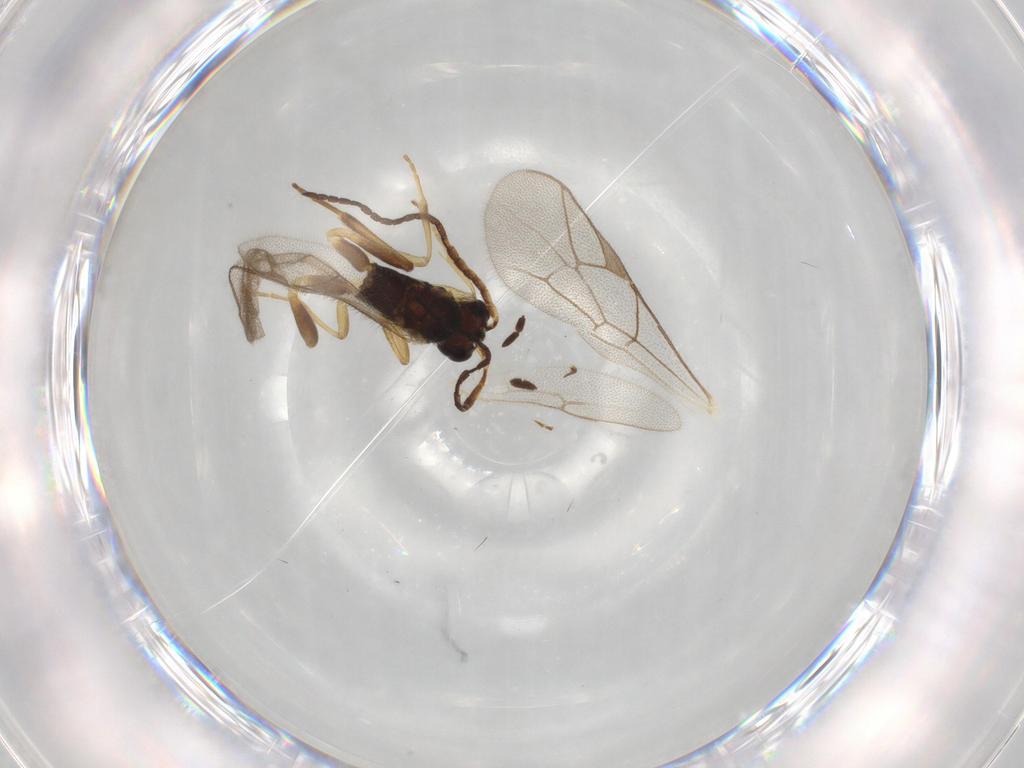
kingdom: Animalia
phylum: Arthropoda
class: Insecta
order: Hymenoptera
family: Ichneumonidae
